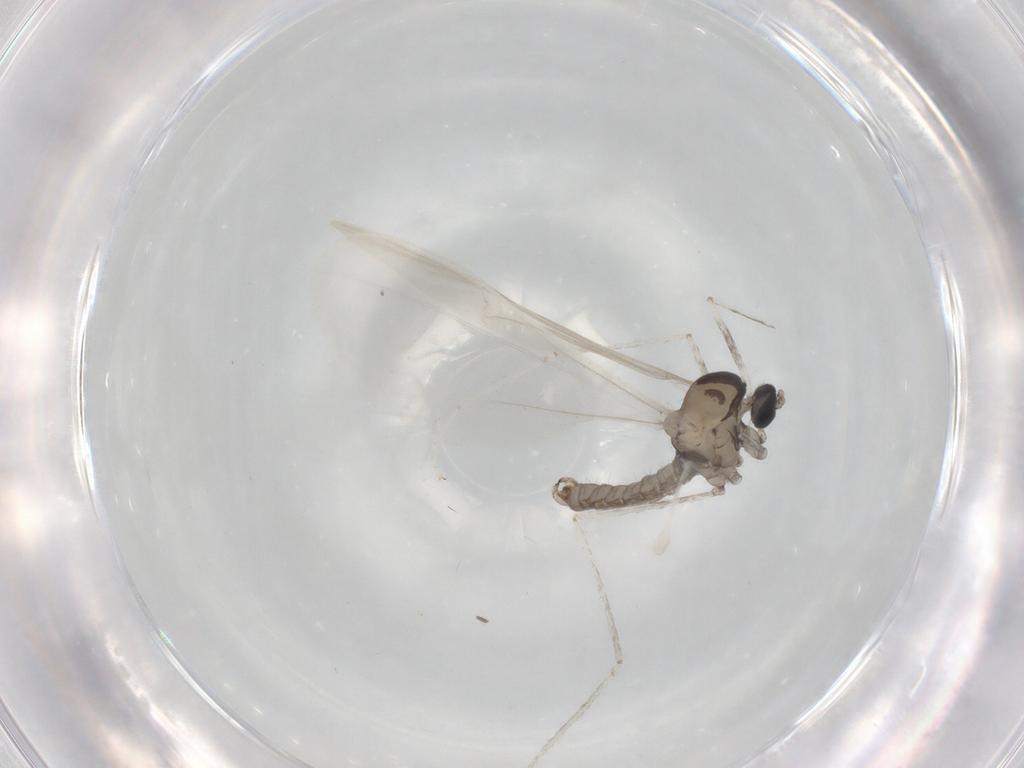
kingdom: Animalia
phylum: Arthropoda
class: Insecta
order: Diptera
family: Cecidomyiidae
